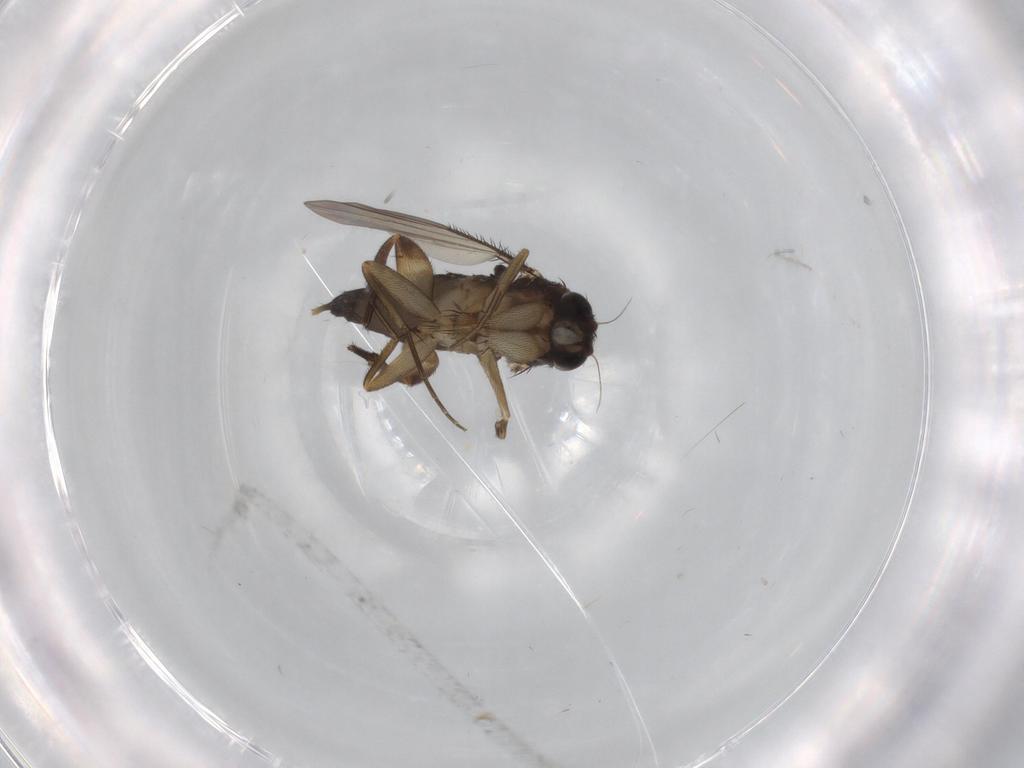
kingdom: Animalia
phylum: Arthropoda
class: Insecta
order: Diptera
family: Phoridae
